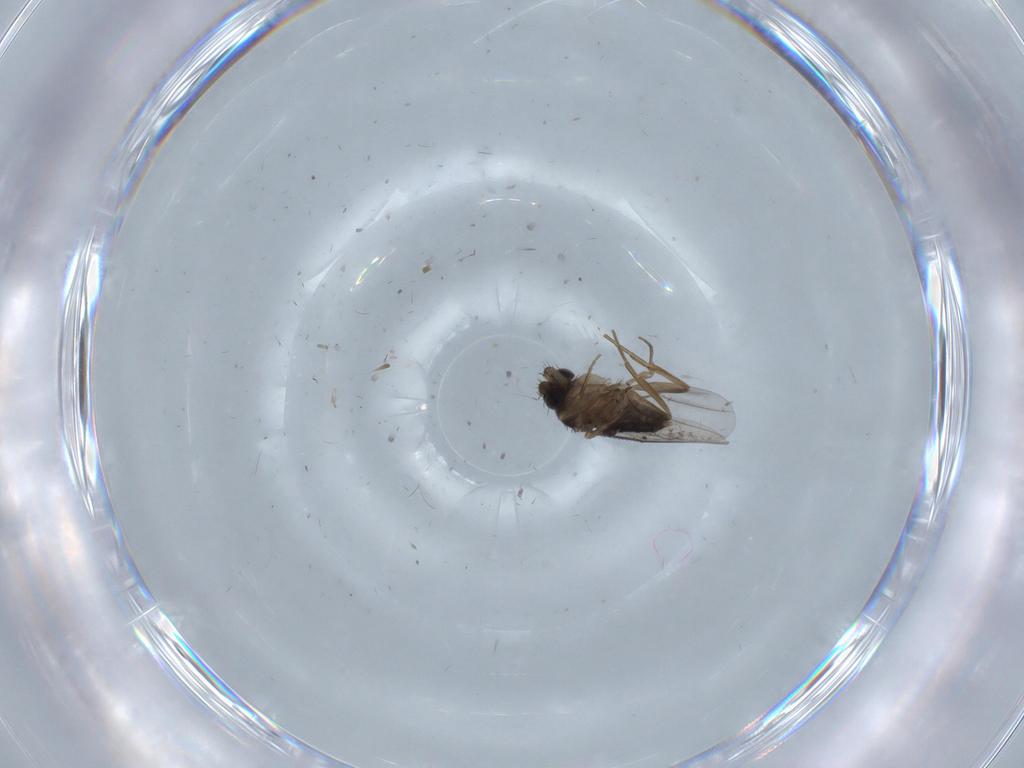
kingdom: Animalia
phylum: Arthropoda
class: Insecta
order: Diptera
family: Phoridae
